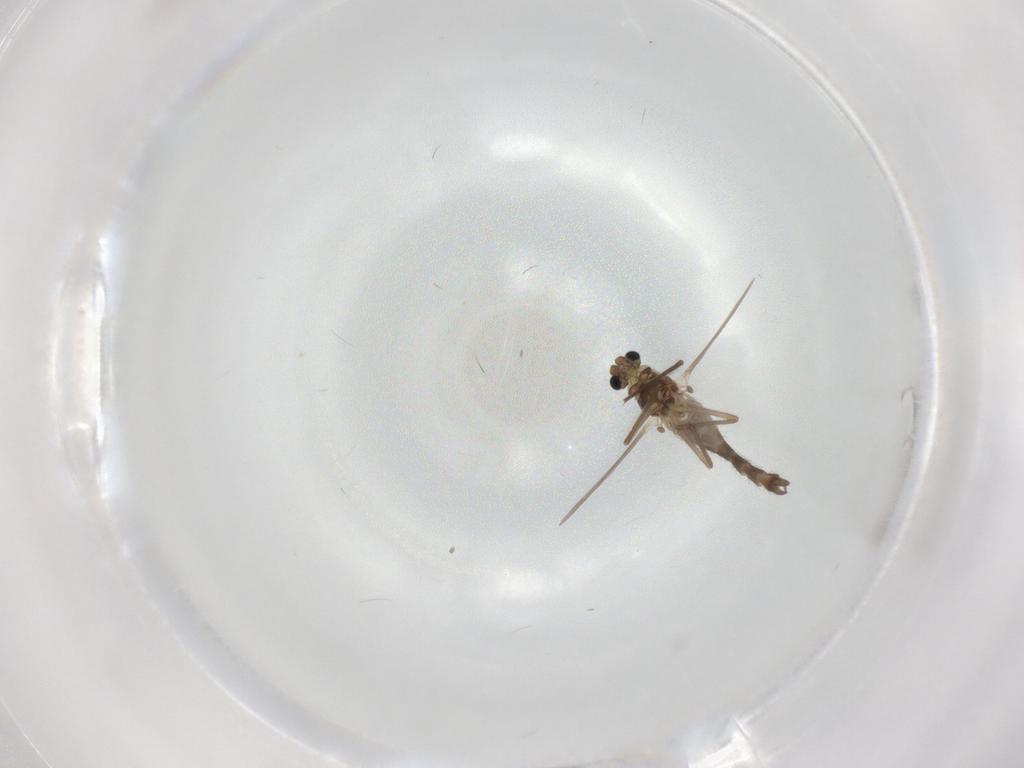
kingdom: Animalia
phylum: Arthropoda
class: Insecta
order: Diptera
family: Chironomidae
